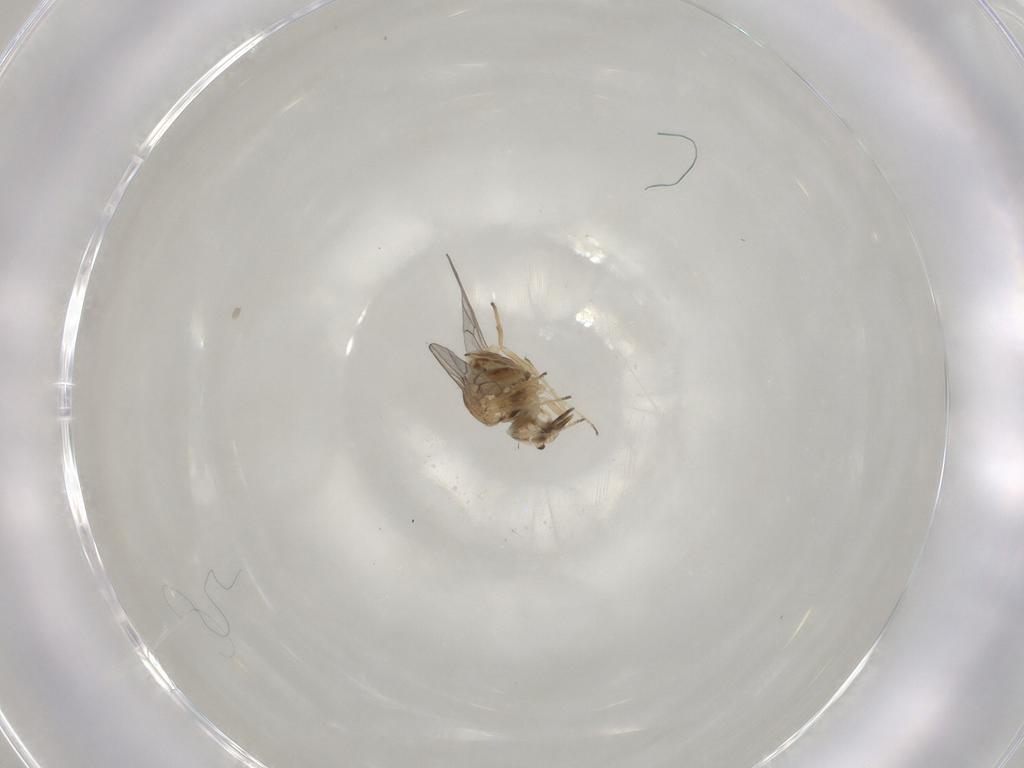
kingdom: Animalia
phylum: Arthropoda
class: Insecta
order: Diptera
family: Mythicomyiidae
